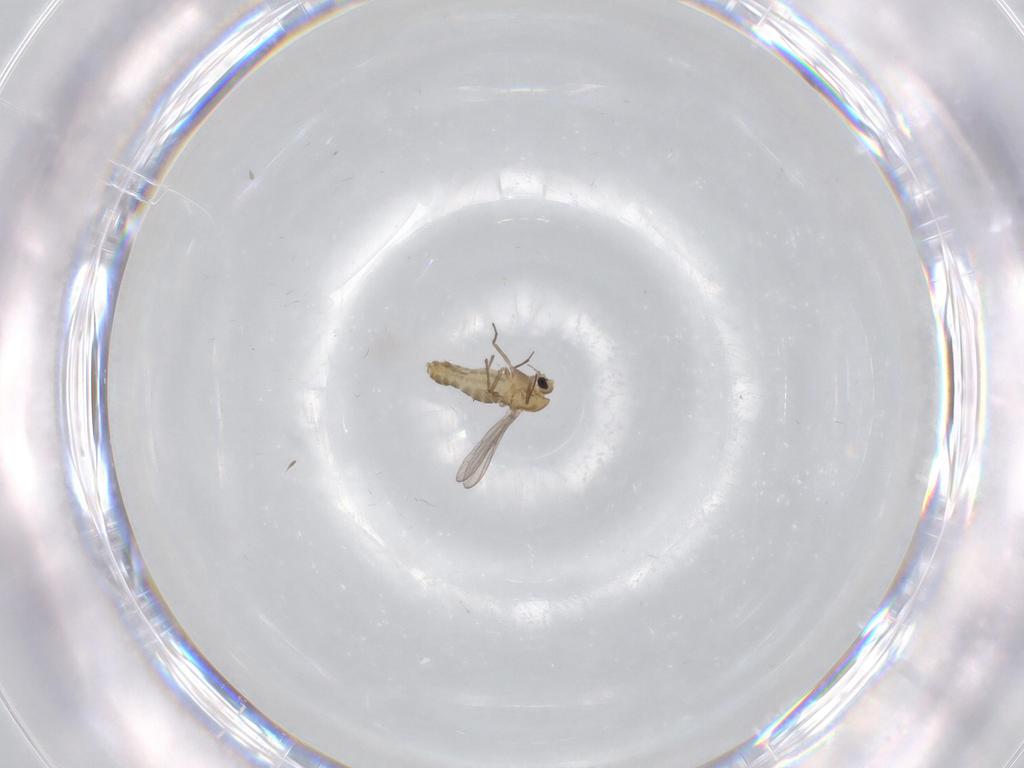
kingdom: Animalia
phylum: Arthropoda
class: Insecta
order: Diptera
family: Chironomidae
